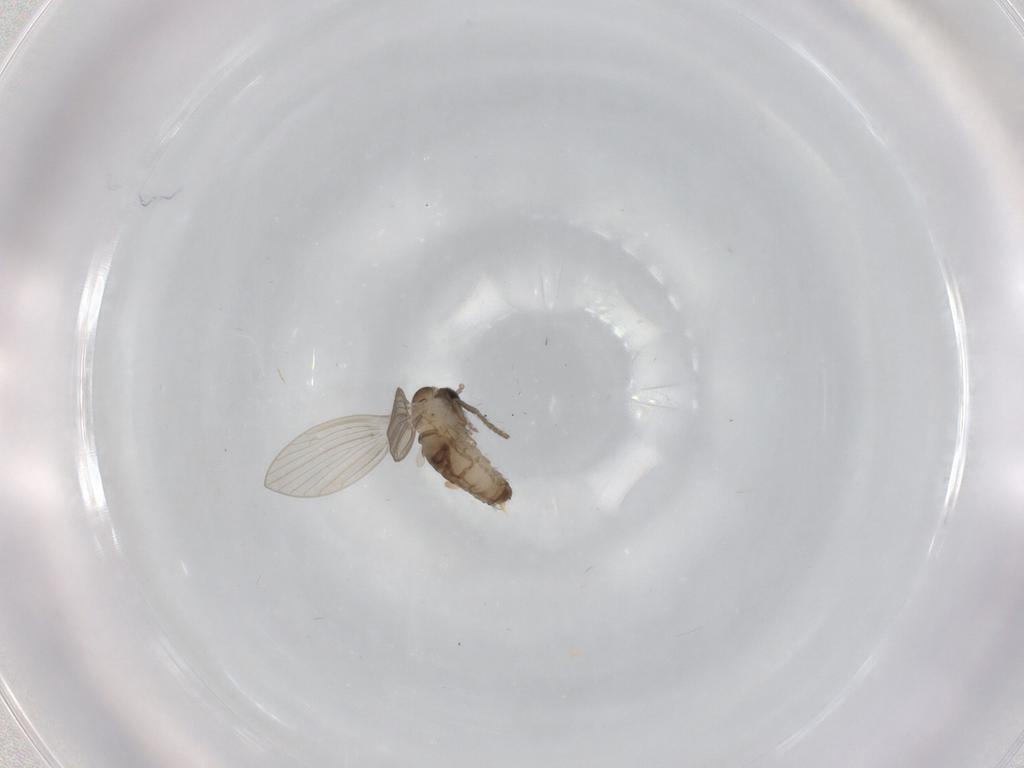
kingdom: Animalia
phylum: Arthropoda
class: Insecta
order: Diptera
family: Psychodidae
